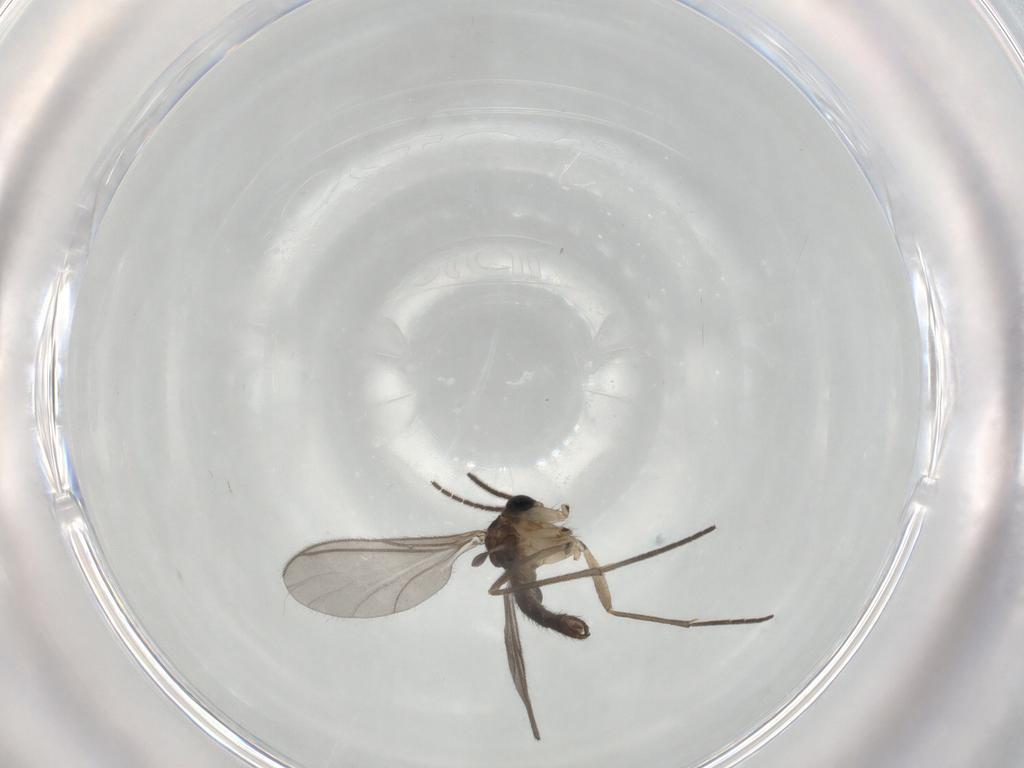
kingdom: Animalia
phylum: Arthropoda
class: Insecta
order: Diptera
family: Sciaridae
